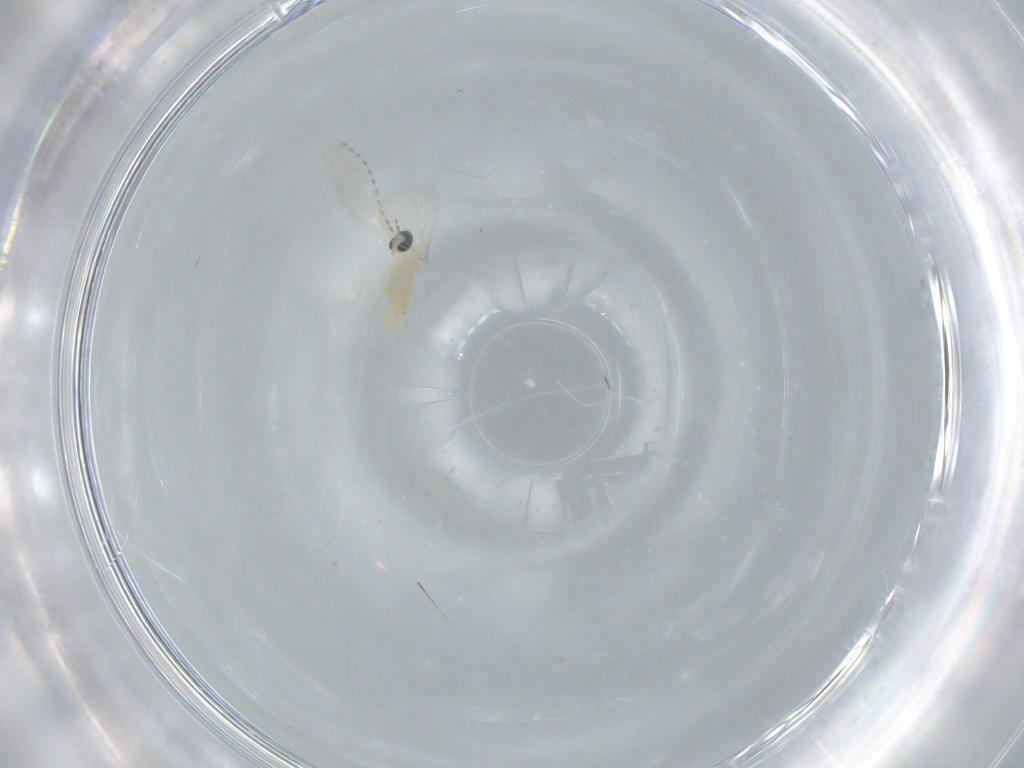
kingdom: Animalia
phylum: Arthropoda
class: Insecta
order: Diptera
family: Cecidomyiidae
